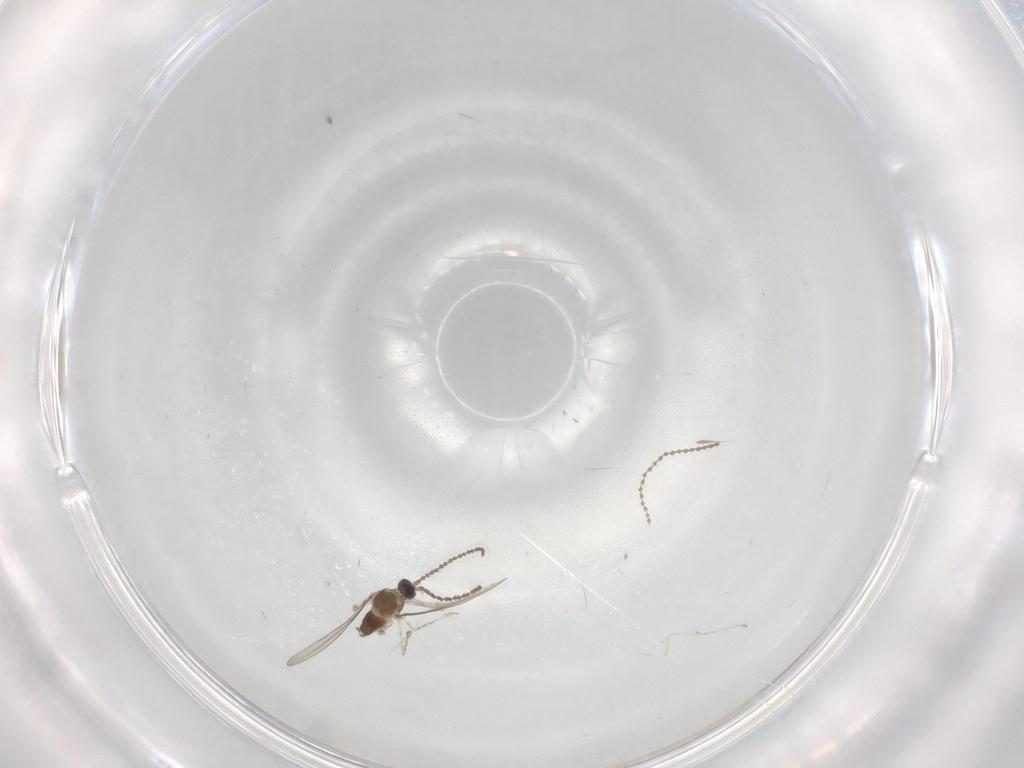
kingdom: Animalia
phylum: Arthropoda
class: Insecta
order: Diptera
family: Cecidomyiidae
